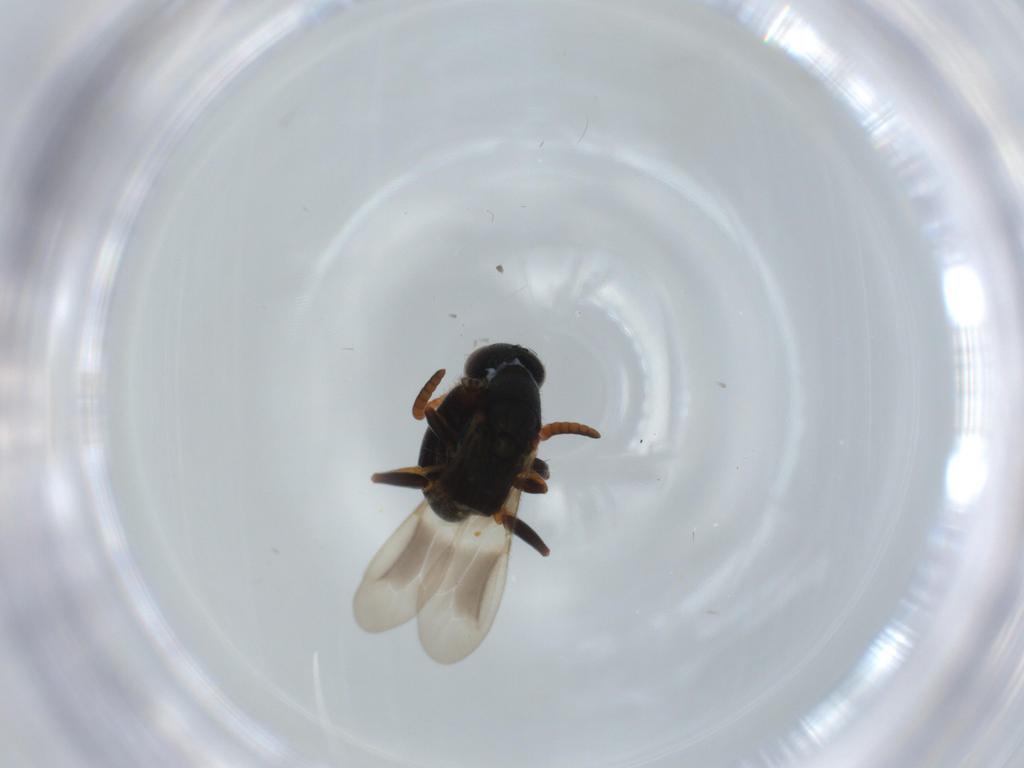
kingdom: Animalia
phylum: Arthropoda
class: Insecta
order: Hymenoptera
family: Bethylidae
